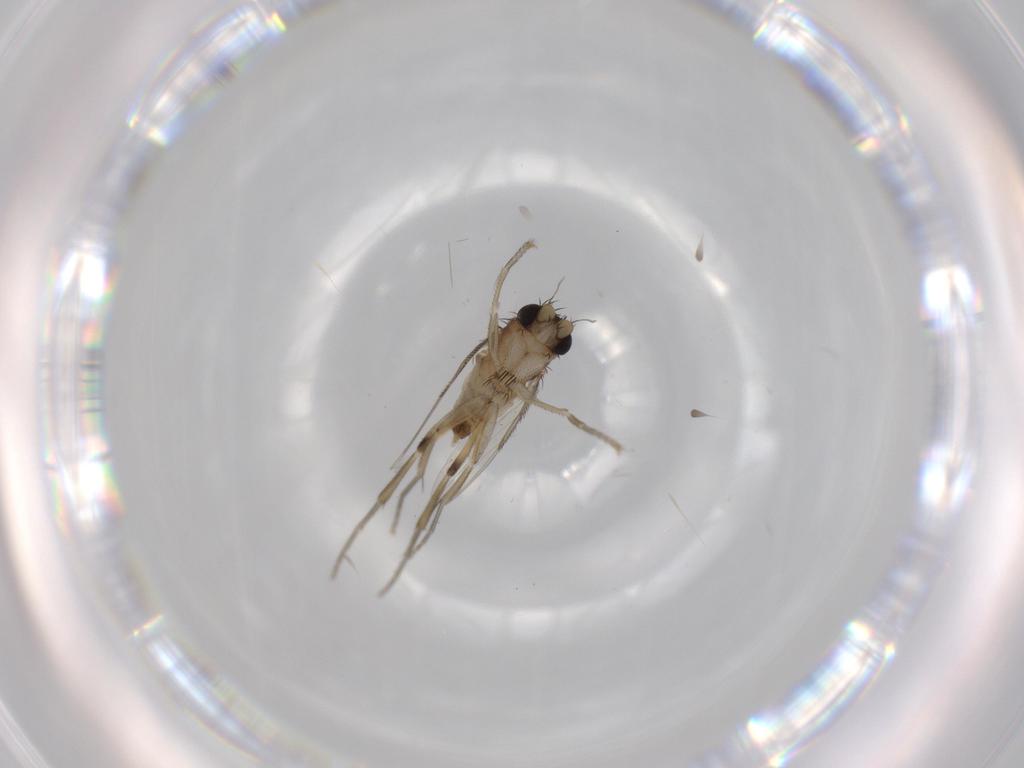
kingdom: Animalia
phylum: Arthropoda
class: Insecta
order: Diptera
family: Phoridae
